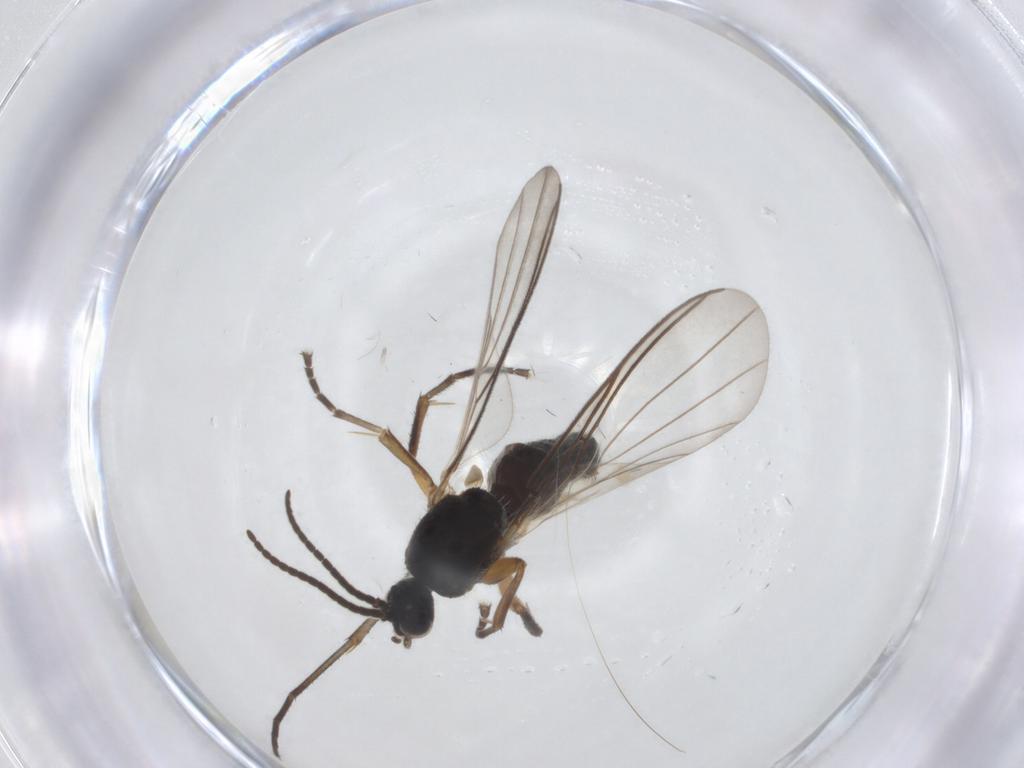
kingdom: Animalia
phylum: Arthropoda
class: Insecta
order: Diptera
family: Mycetophilidae
